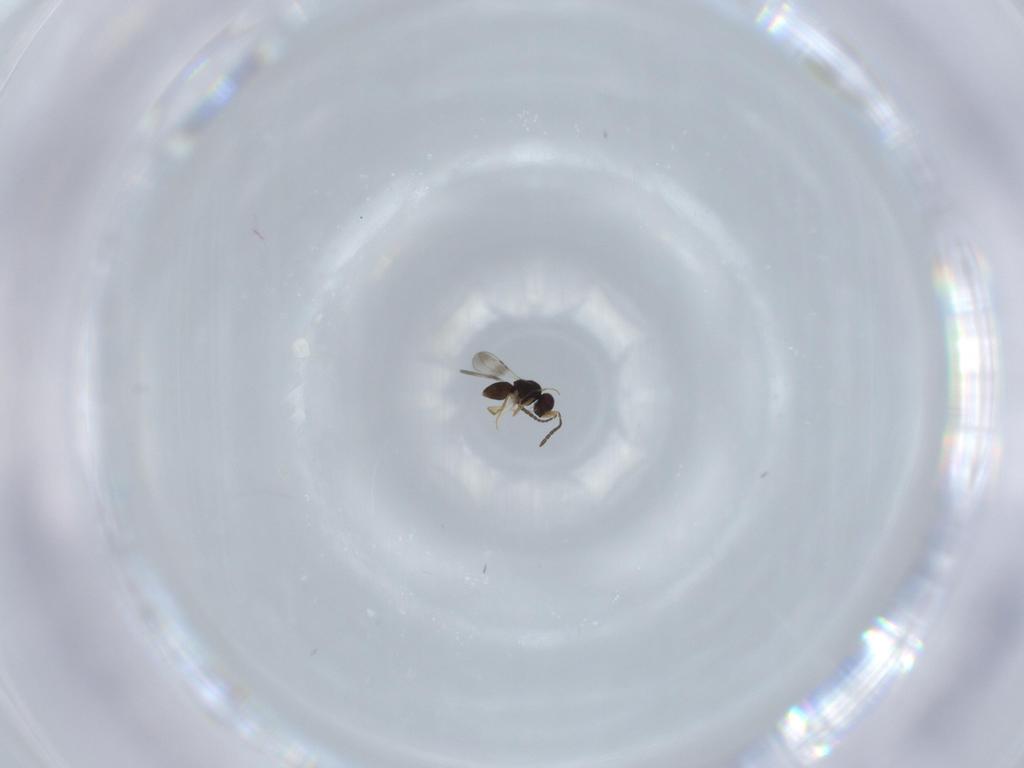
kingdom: Animalia
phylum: Arthropoda
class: Insecta
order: Hymenoptera
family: Ceraphronidae
